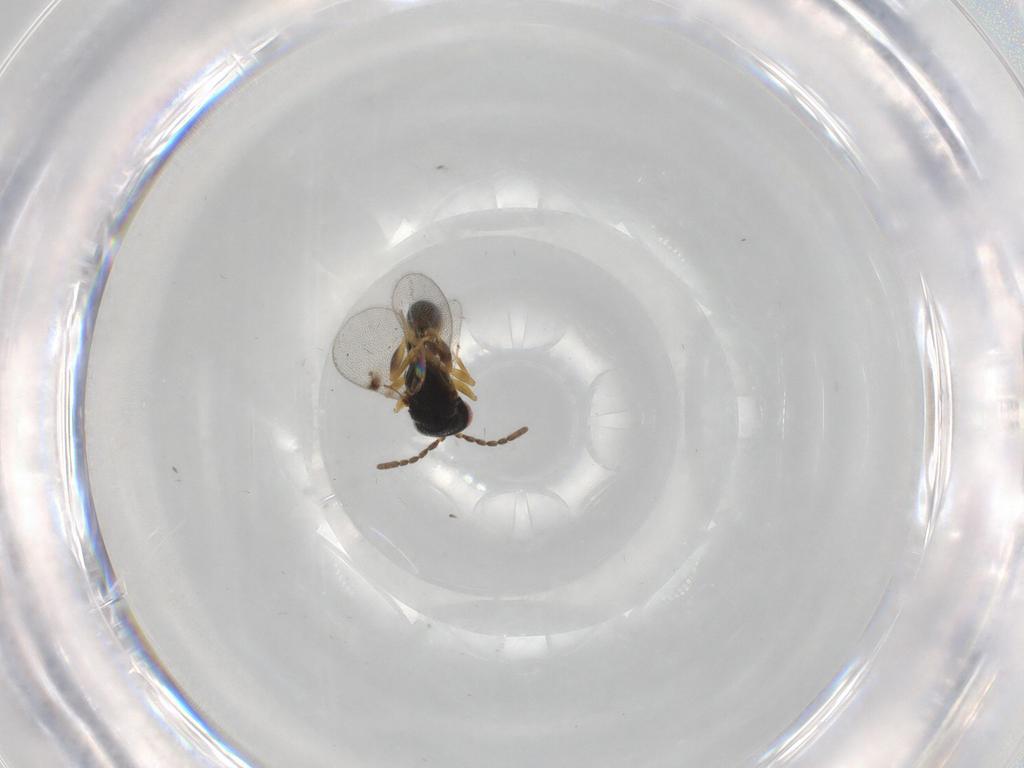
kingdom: Animalia
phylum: Arthropoda
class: Insecta
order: Hymenoptera
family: Eurytomidae
